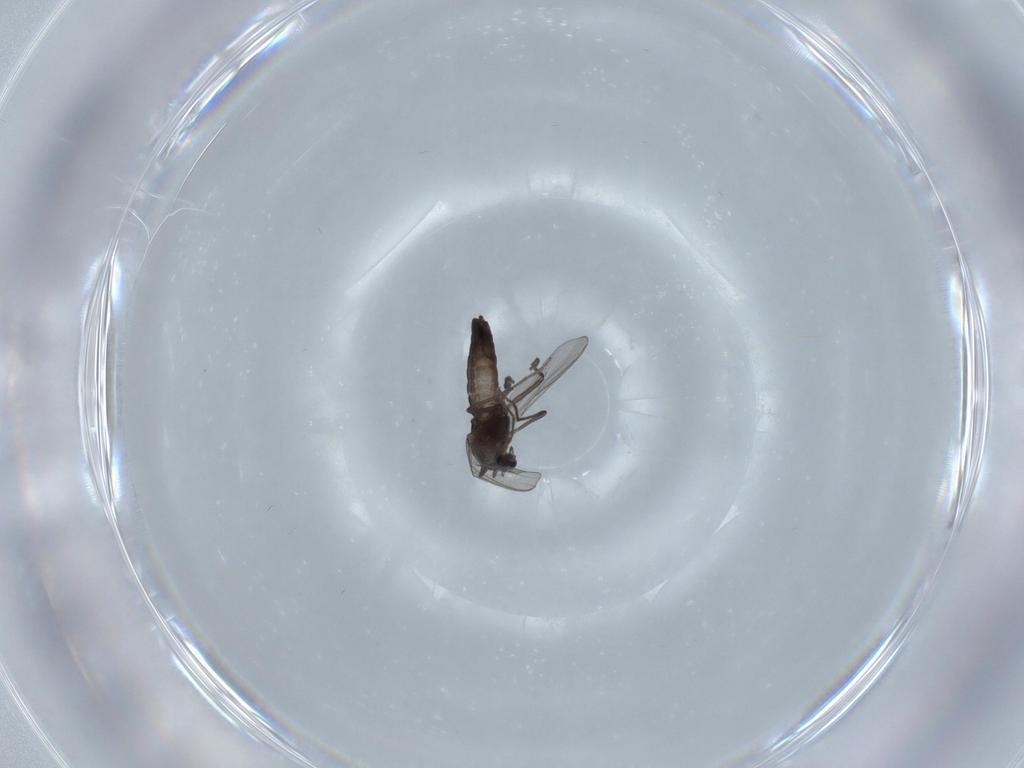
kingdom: Animalia
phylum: Arthropoda
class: Insecta
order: Diptera
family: Chironomidae
